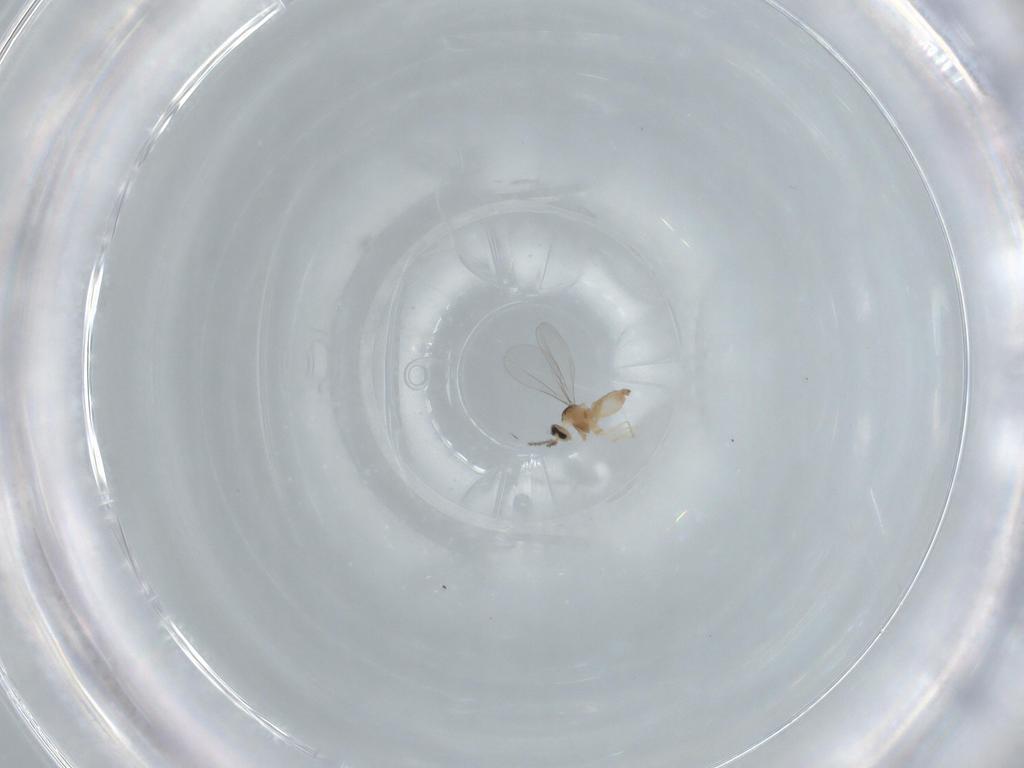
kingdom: Animalia
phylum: Arthropoda
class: Insecta
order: Diptera
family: Cecidomyiidae
